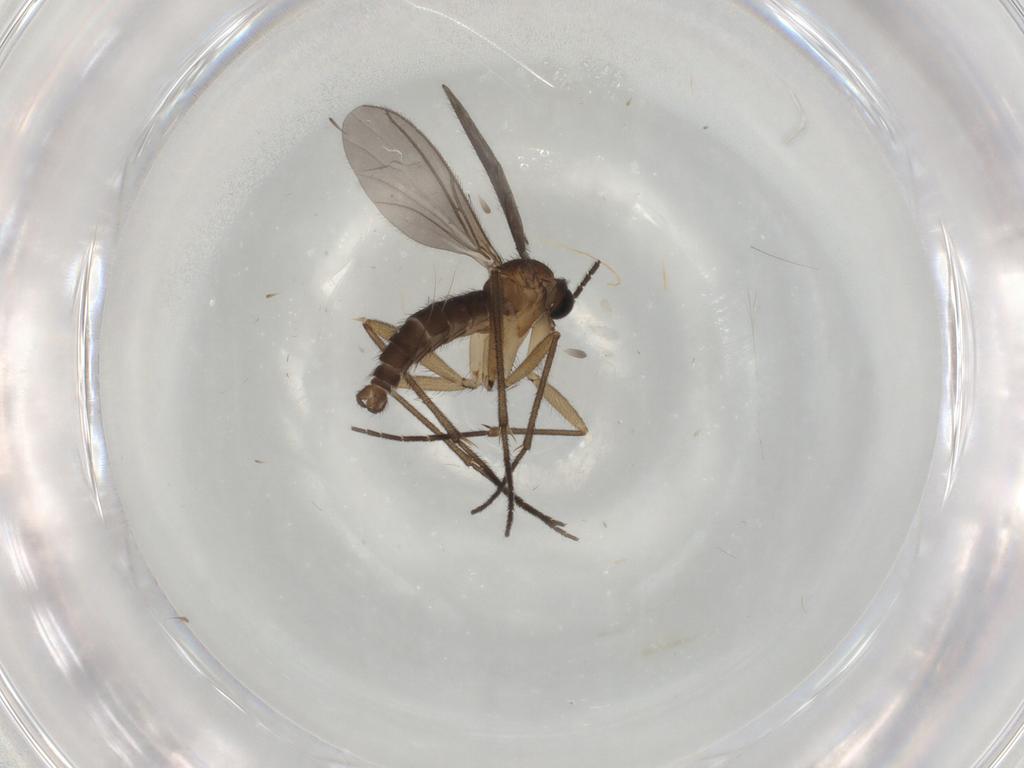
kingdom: Animalia
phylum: Arthropoda
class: Insecta
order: Diptera
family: Sciaridae
